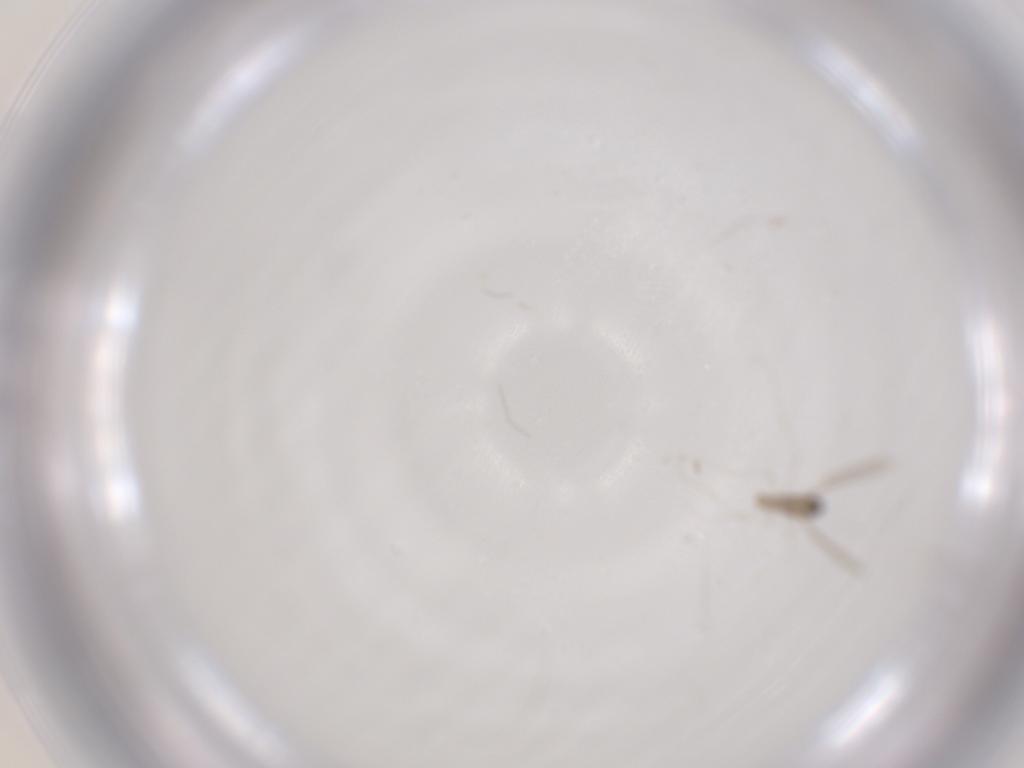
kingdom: Animalia
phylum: Arthropoda
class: Insecta
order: Diptera
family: Cecidomyiidae
